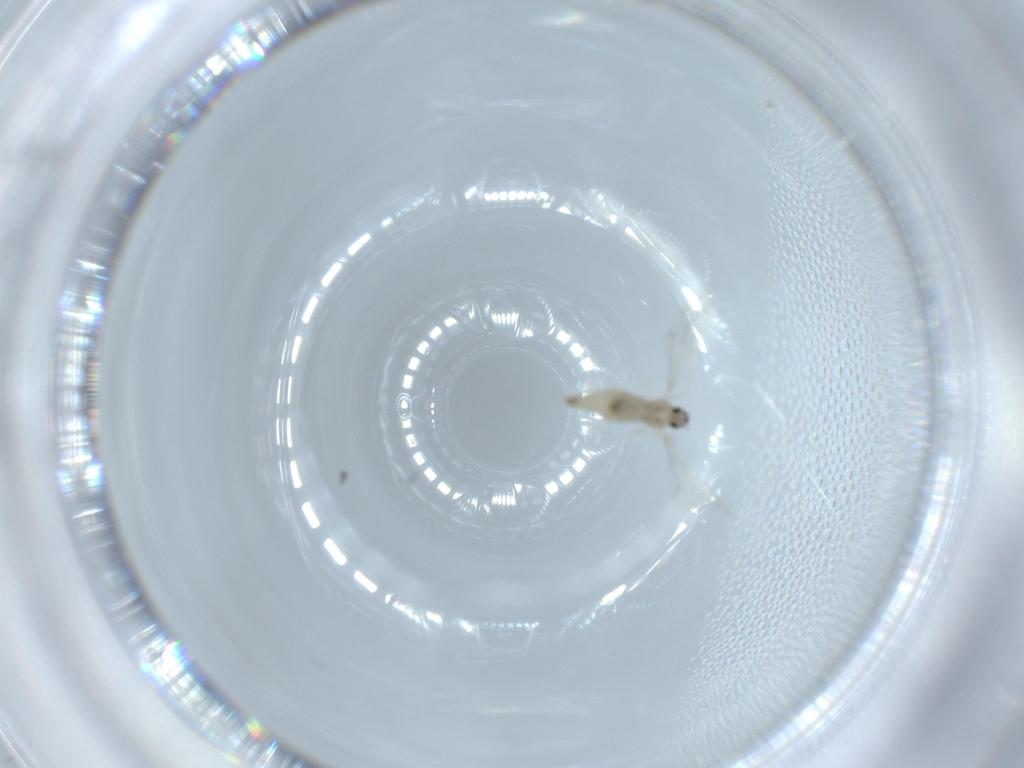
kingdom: Animalia
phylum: Arthropoda
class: Insecta
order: Diptera
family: Cecidomyiidae
